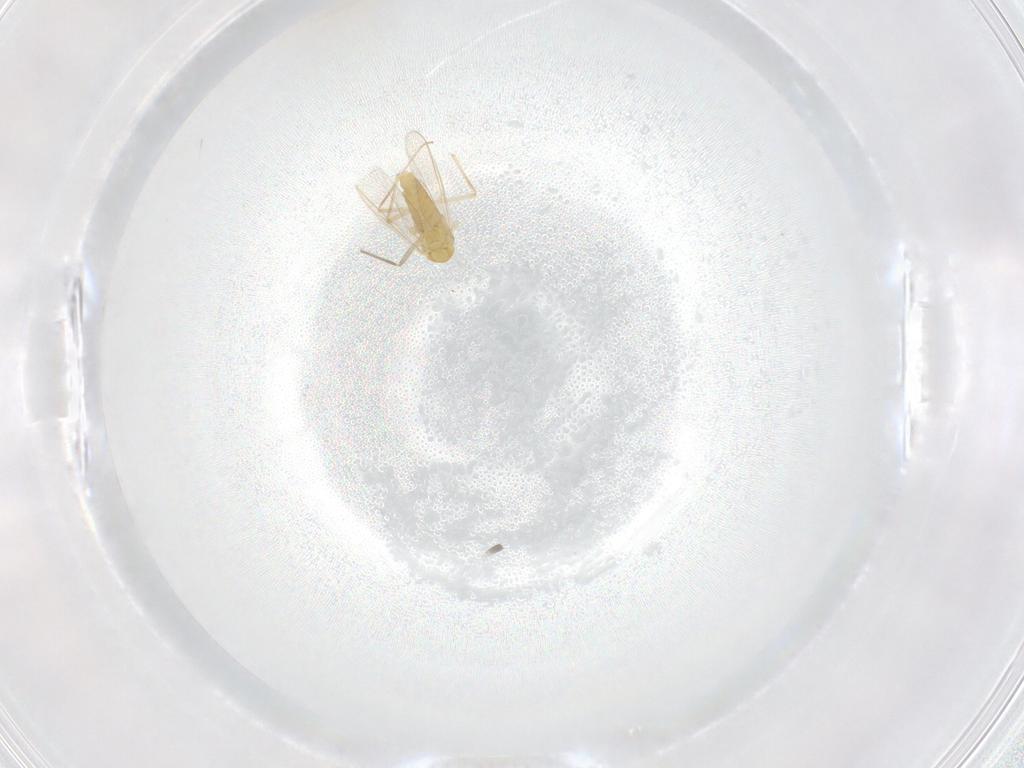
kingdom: Animalia
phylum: Arthropoda
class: Insecta
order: Diptera
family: Chironomidae
